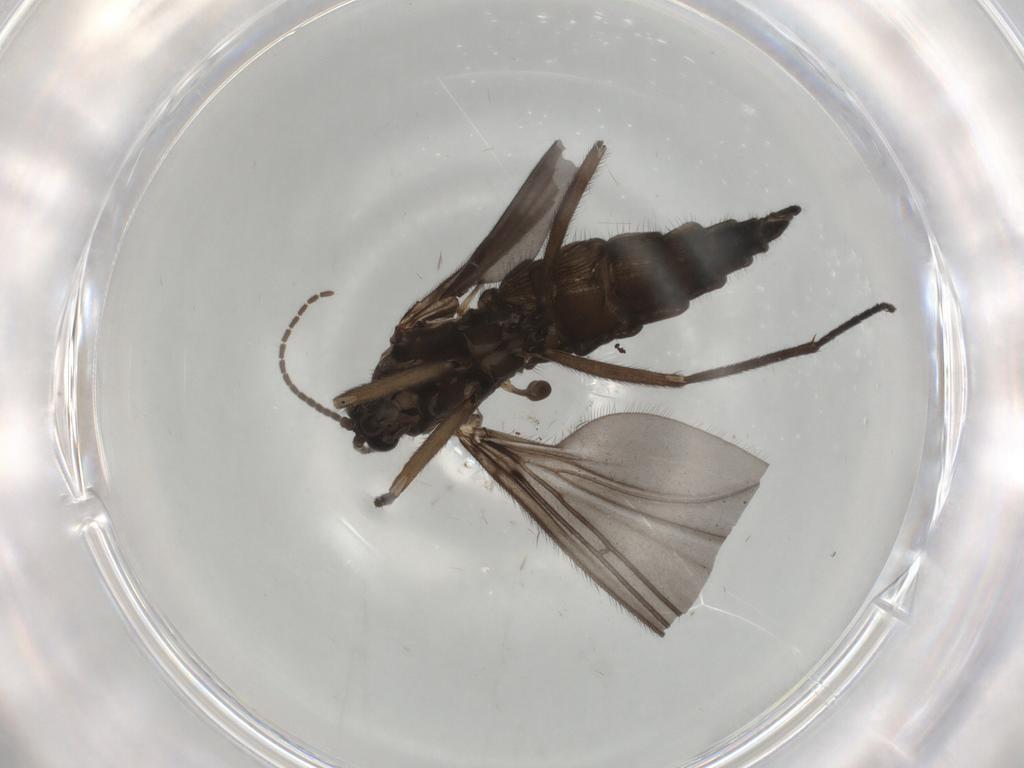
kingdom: Animalia
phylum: Arthropoda
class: Insecta
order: Diptera
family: Sciaridae
